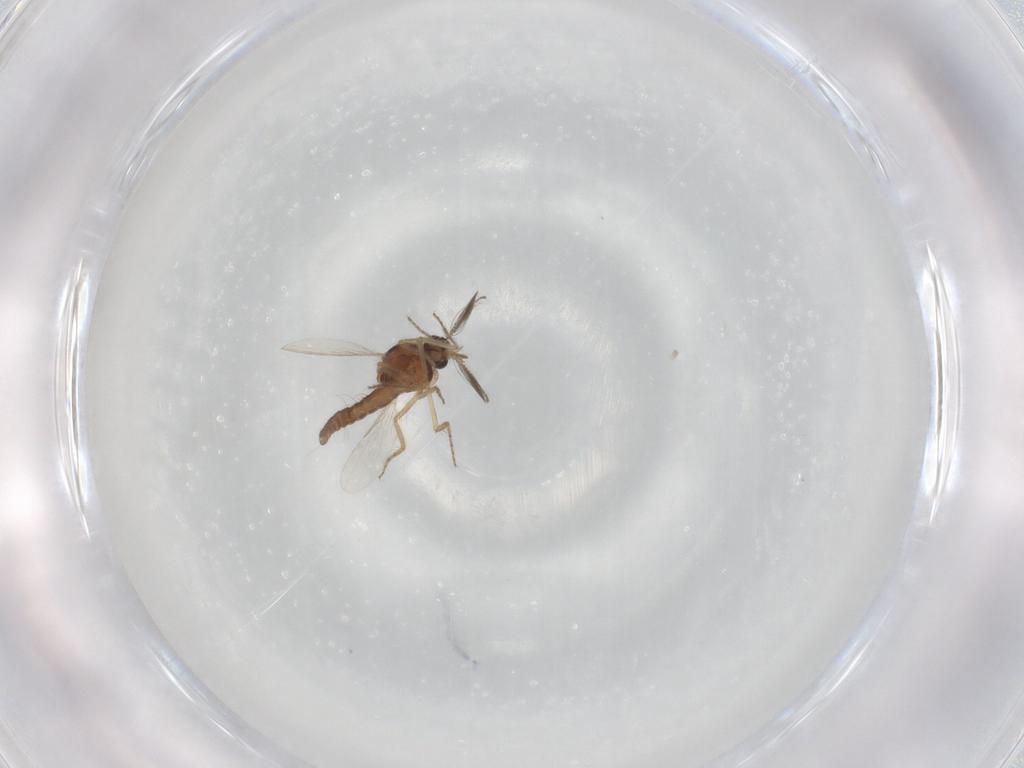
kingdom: Animalia
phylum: Arthropoda
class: Insecta
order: Diptera
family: Ceratopogonidae
